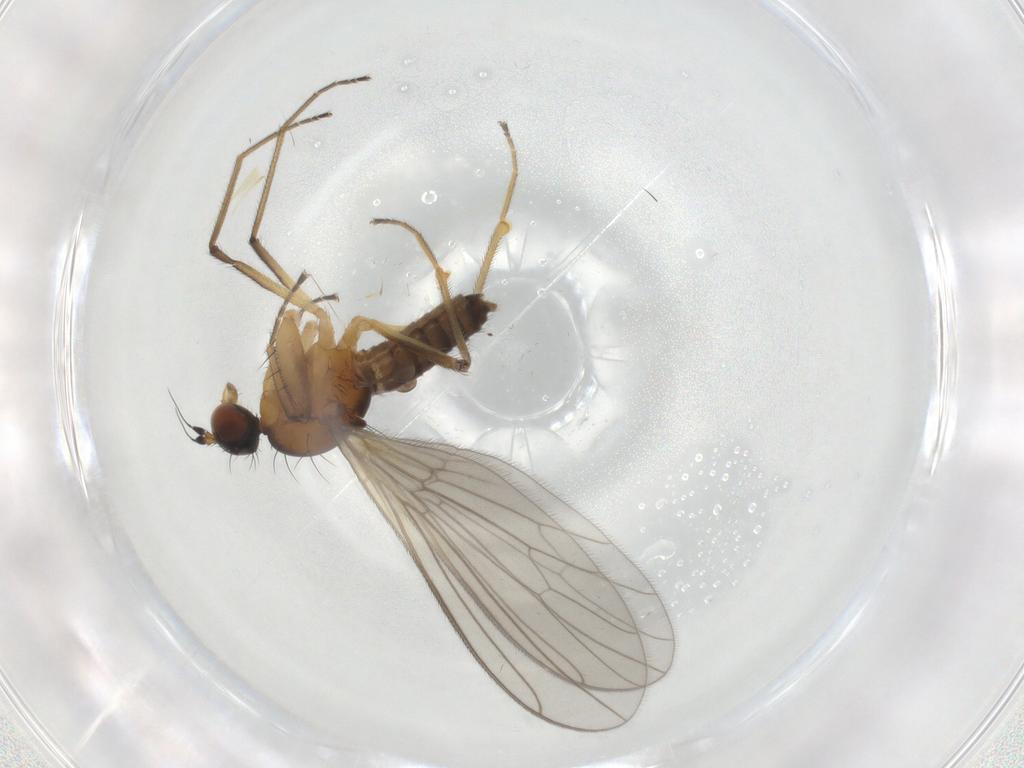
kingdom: Animalia
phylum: Arthropoda
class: Insecta
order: Diptera
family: Empididae
